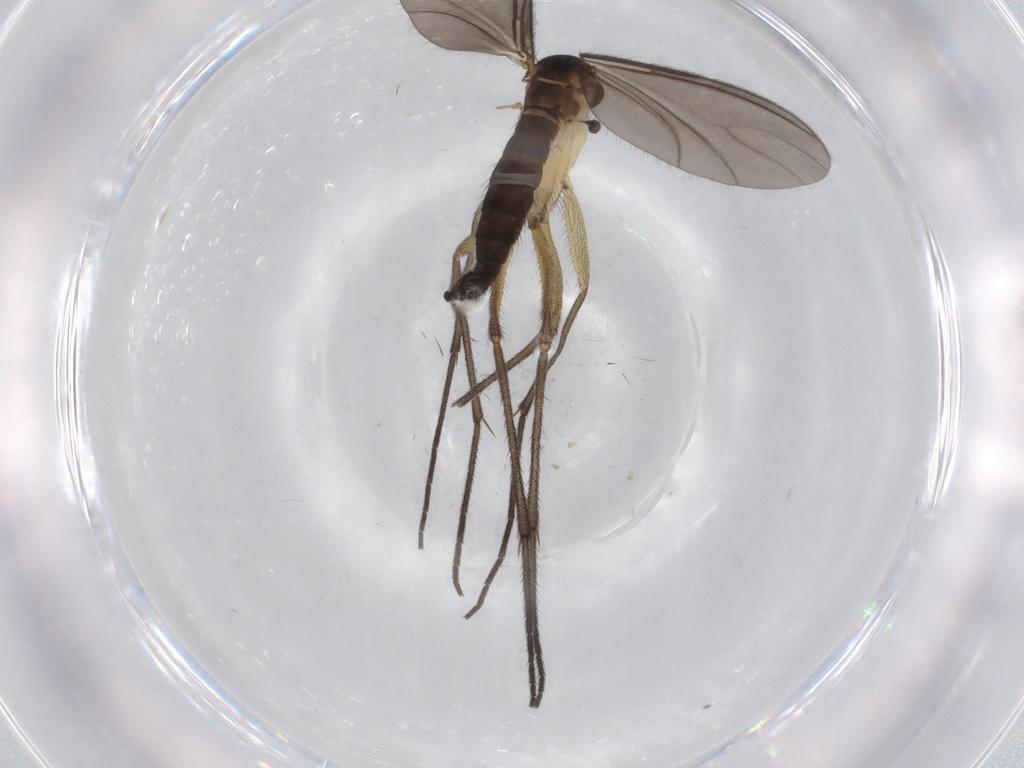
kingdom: Animalia
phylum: Arthropoda
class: Insecta
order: Diptera
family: Sciaridae
